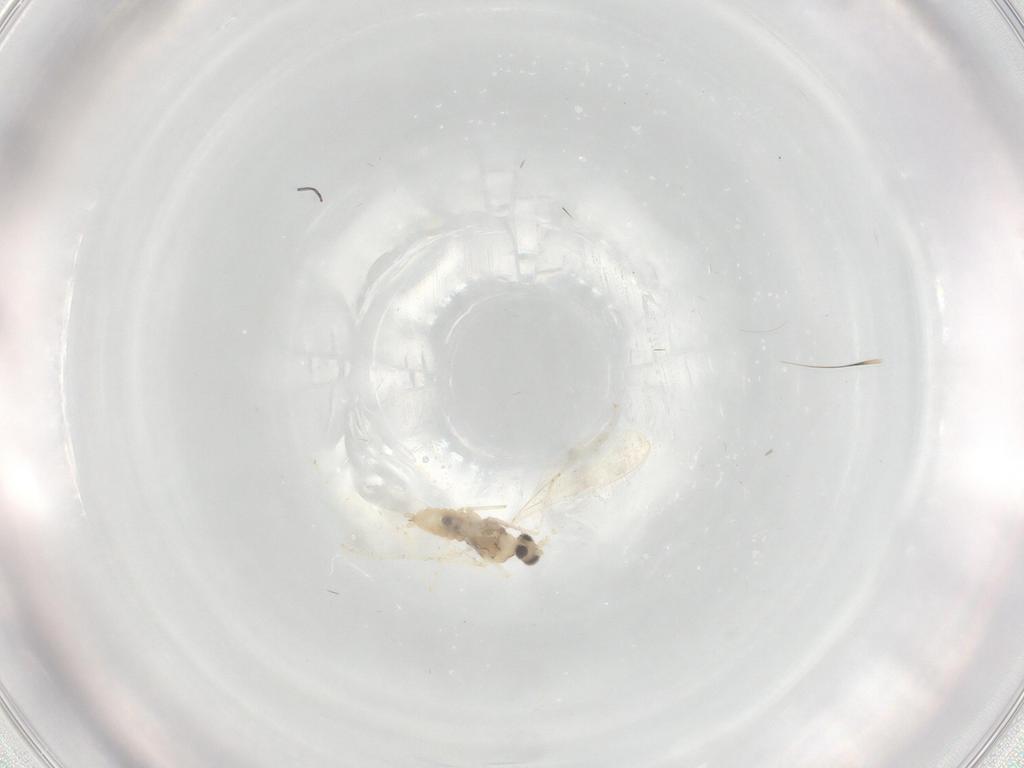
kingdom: Animalia
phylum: Arthropoda
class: Insecta
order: Diptera
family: Cecidomyiidae
